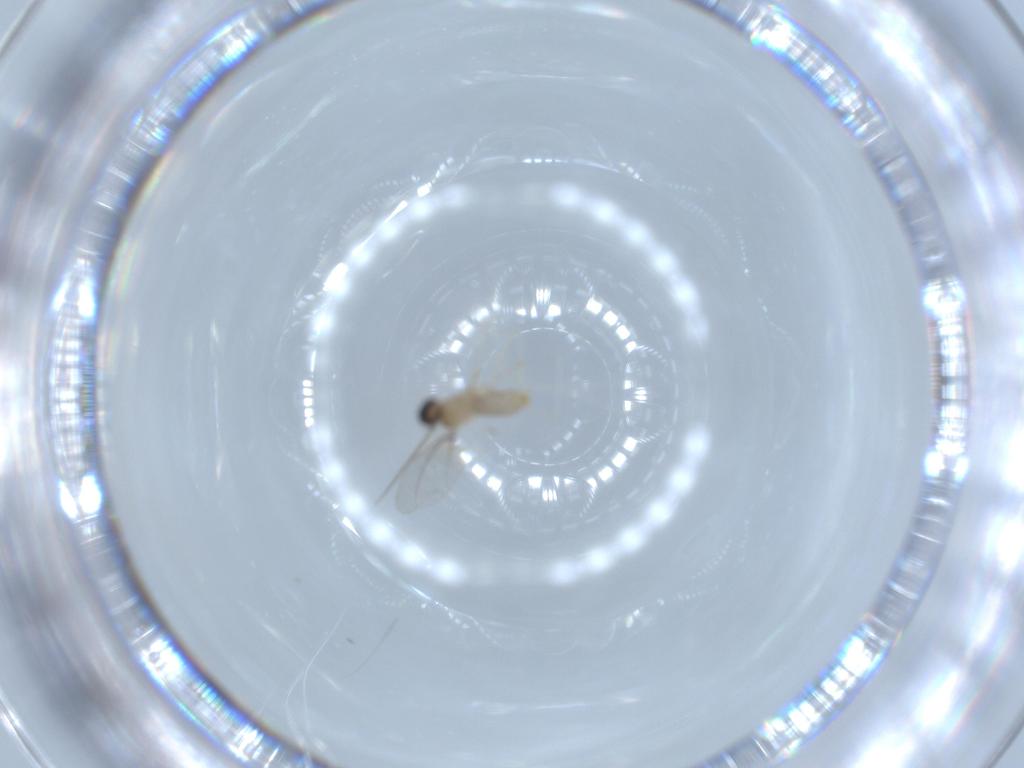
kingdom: Animalia
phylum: Arthropoda
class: Insecta
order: Diptera
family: Cecidomyiidae
